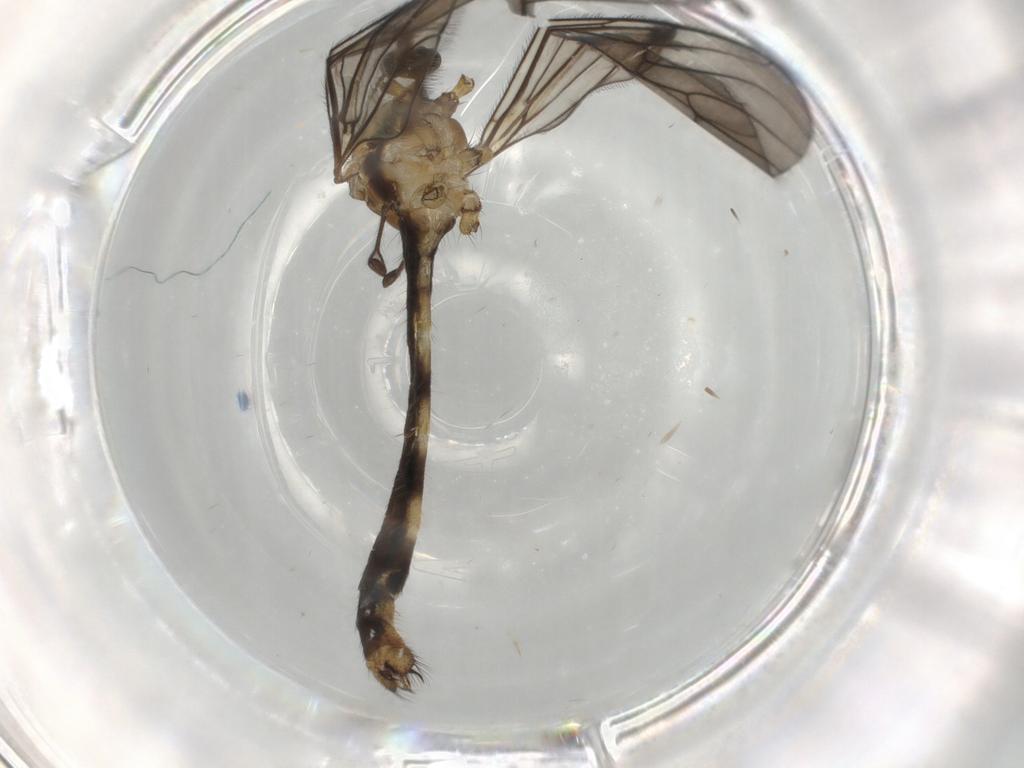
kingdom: Animalia
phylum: Arthropoda
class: Insecta
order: Diptera
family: Limoniidae
